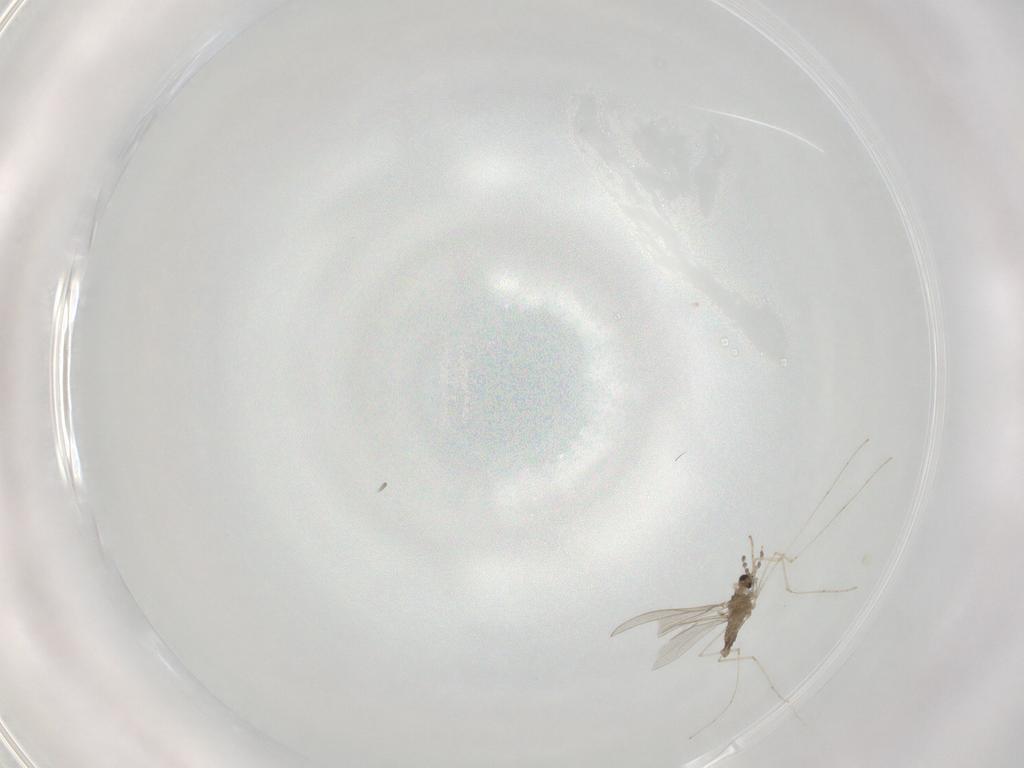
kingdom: Animalia
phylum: Arthropoda
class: Insecta
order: Diptera
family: Cecidomyiidae
